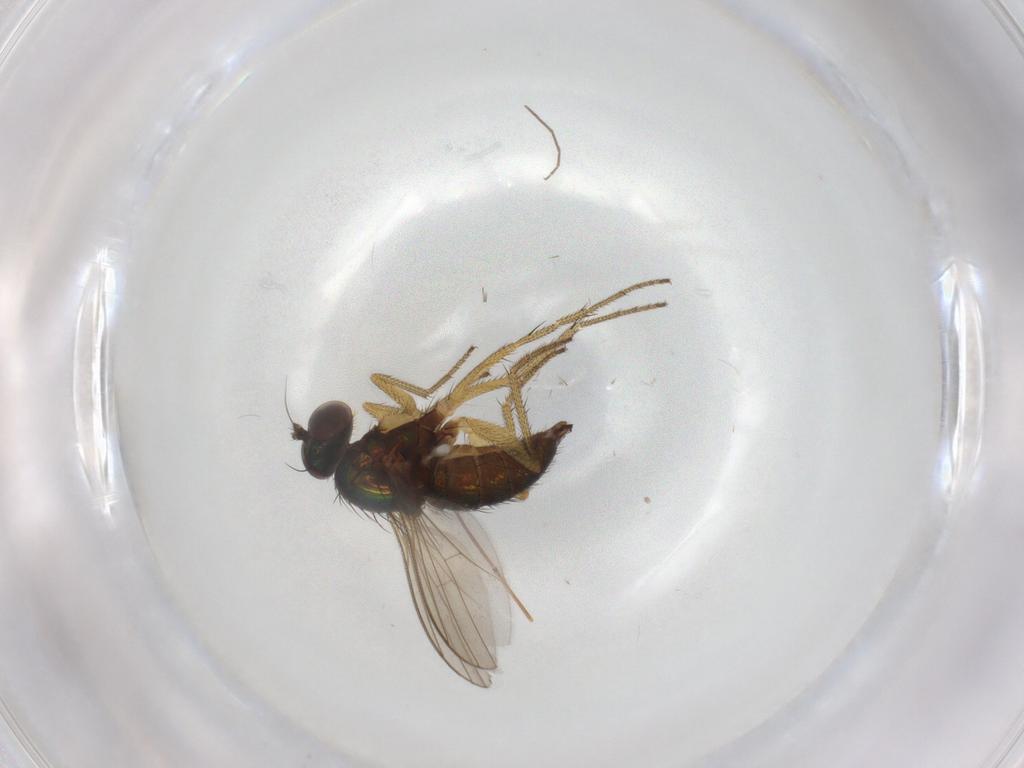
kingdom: Animalia
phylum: Arthropoda
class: Insecta
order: Diptera
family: Dolichopodidae
